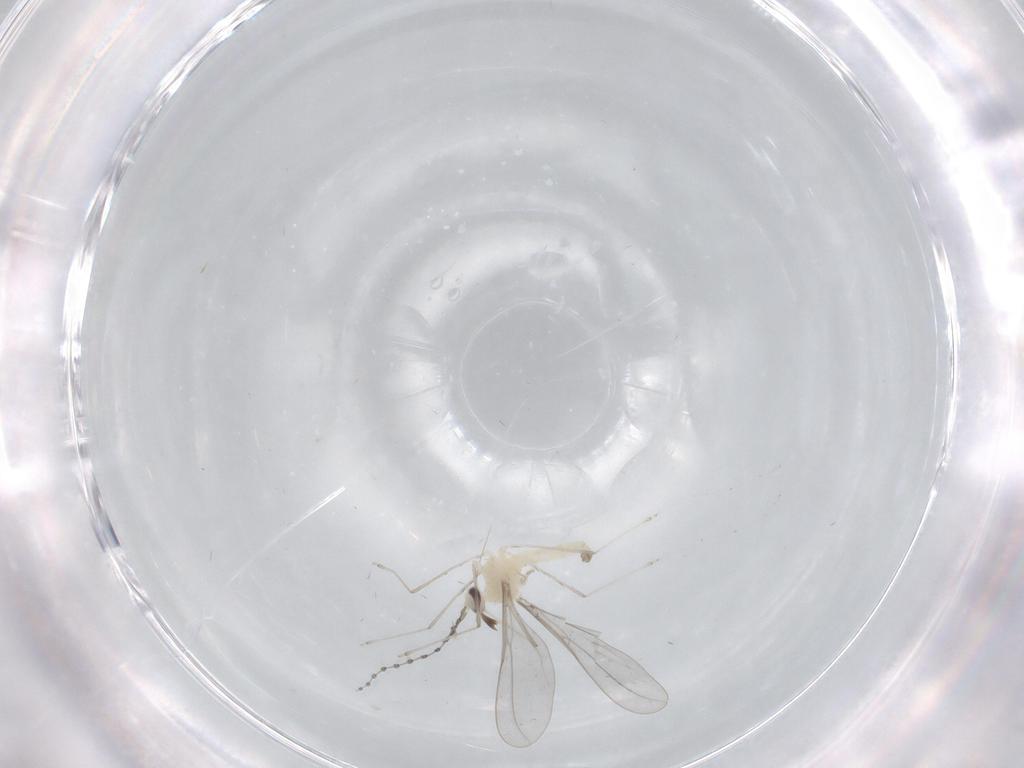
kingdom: Animalia
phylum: Arthropoda
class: Insecta
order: Diptera
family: Cecidomyiidae
